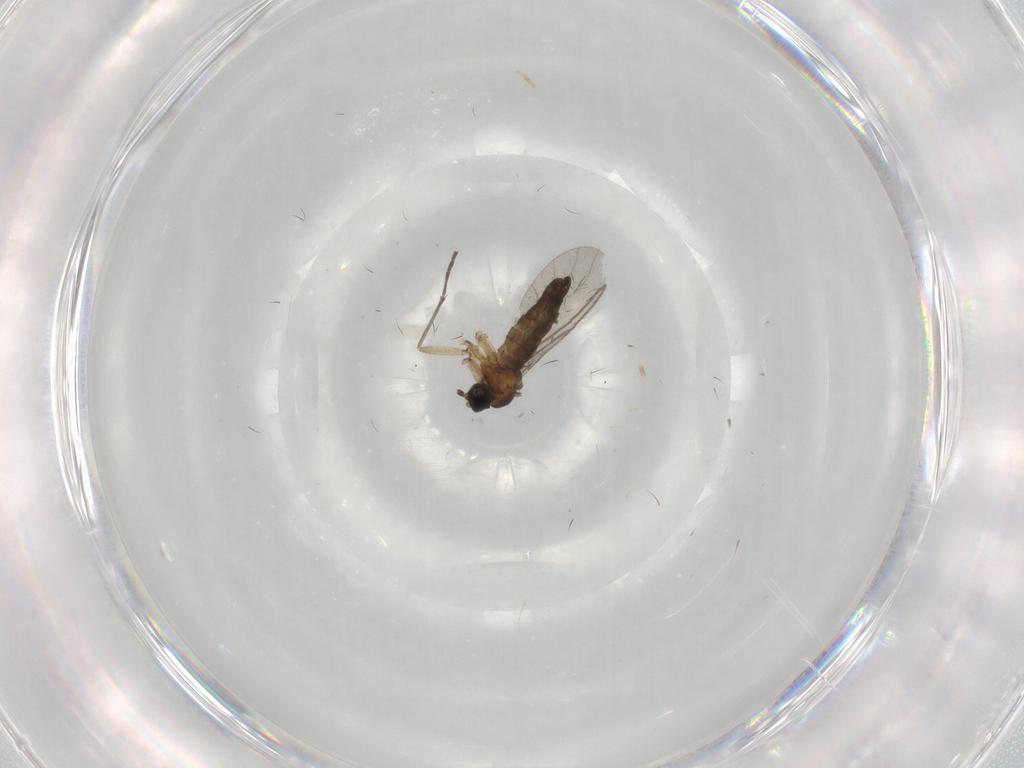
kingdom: Animalia
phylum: Arthropoda
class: Insecta
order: Diptera
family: Sciaridae
